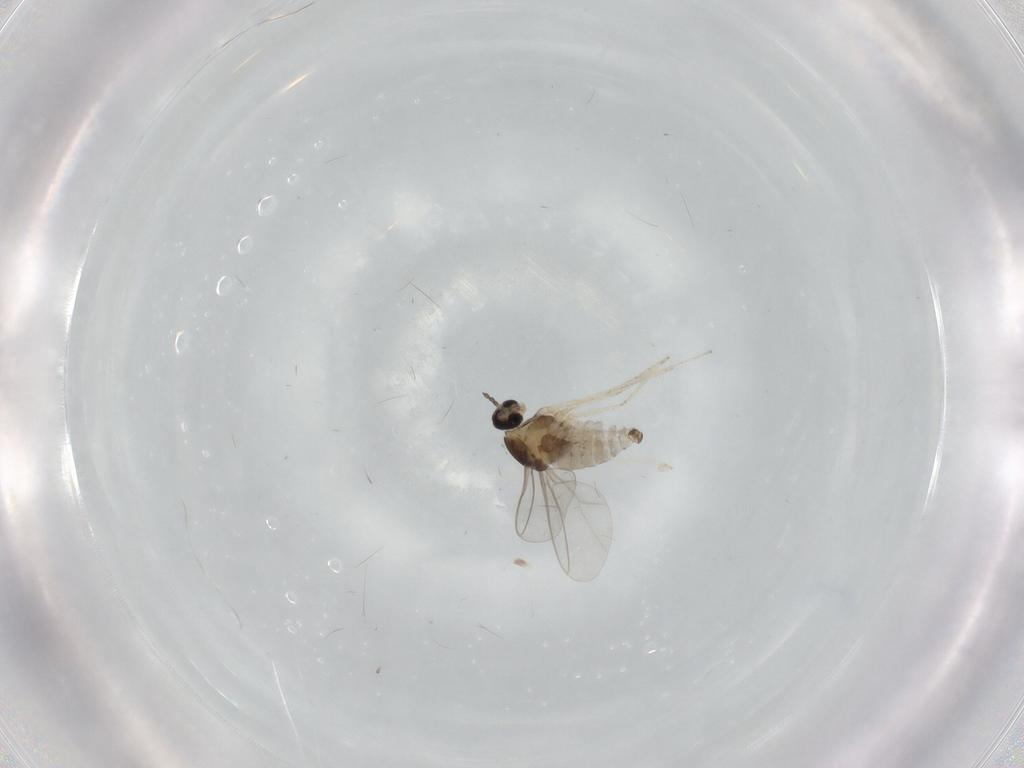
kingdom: Animalia
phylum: Arthropoda
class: Insecta
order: Diptera
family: Cecidomyiidae
